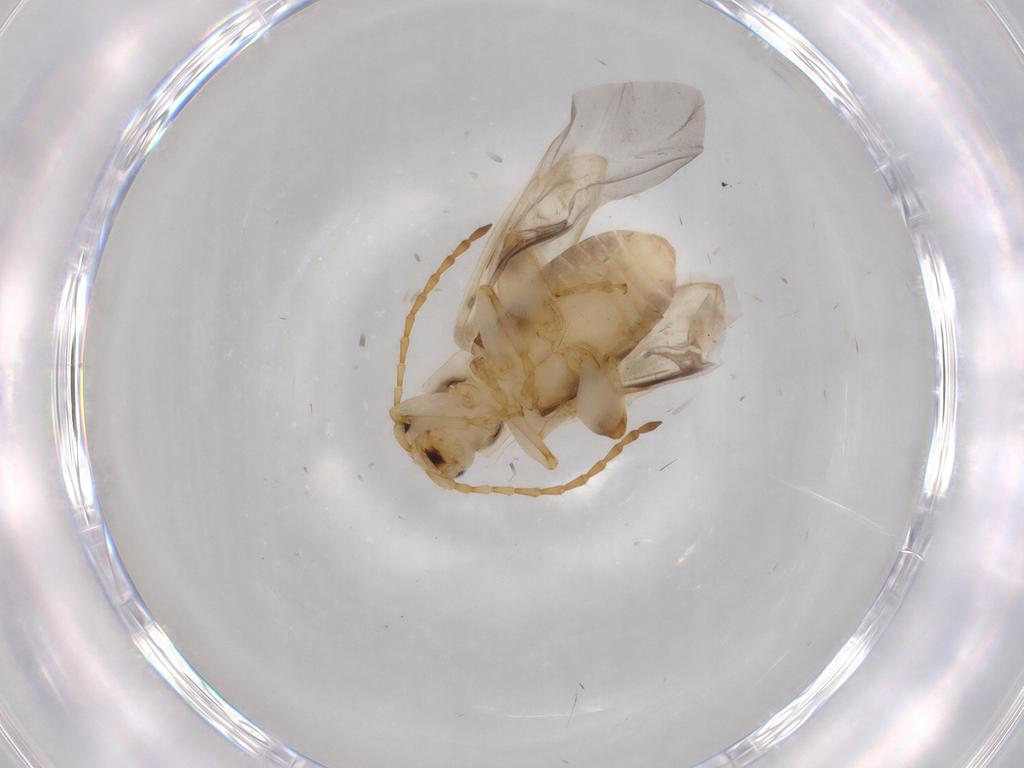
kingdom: Animalia
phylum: Arthropoda
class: Insecta
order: Coleoptera
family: Chrysomelidae
